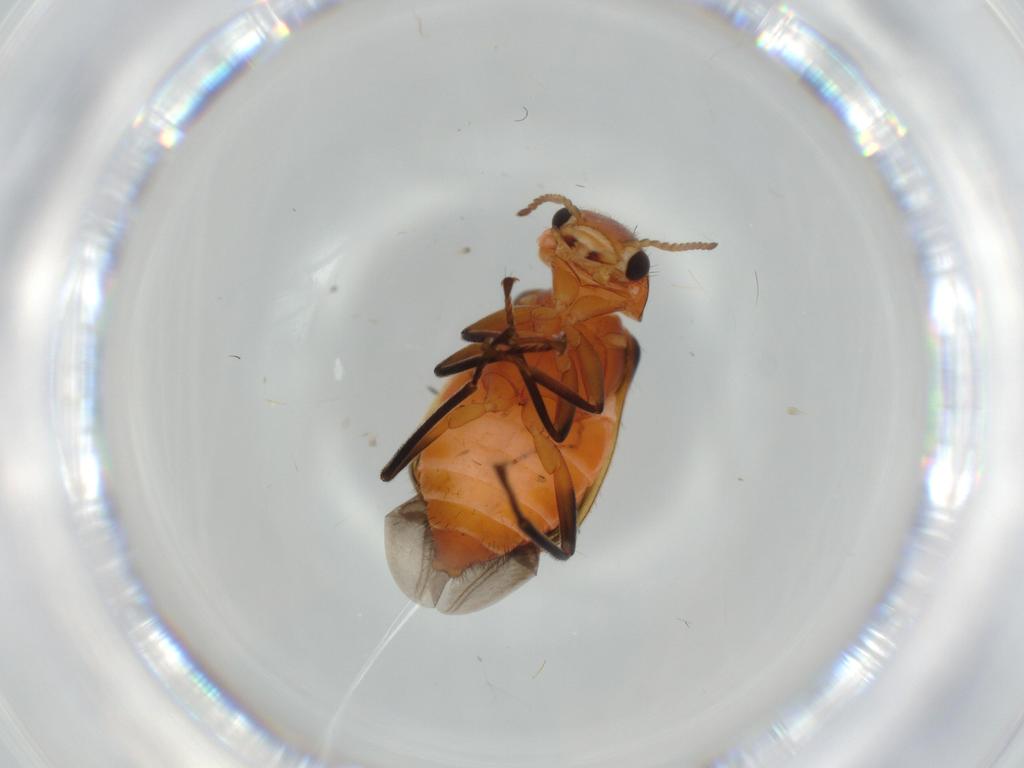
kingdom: Animalia
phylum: Arthropoda
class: Insecta
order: Coleoptera
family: Melyridae
